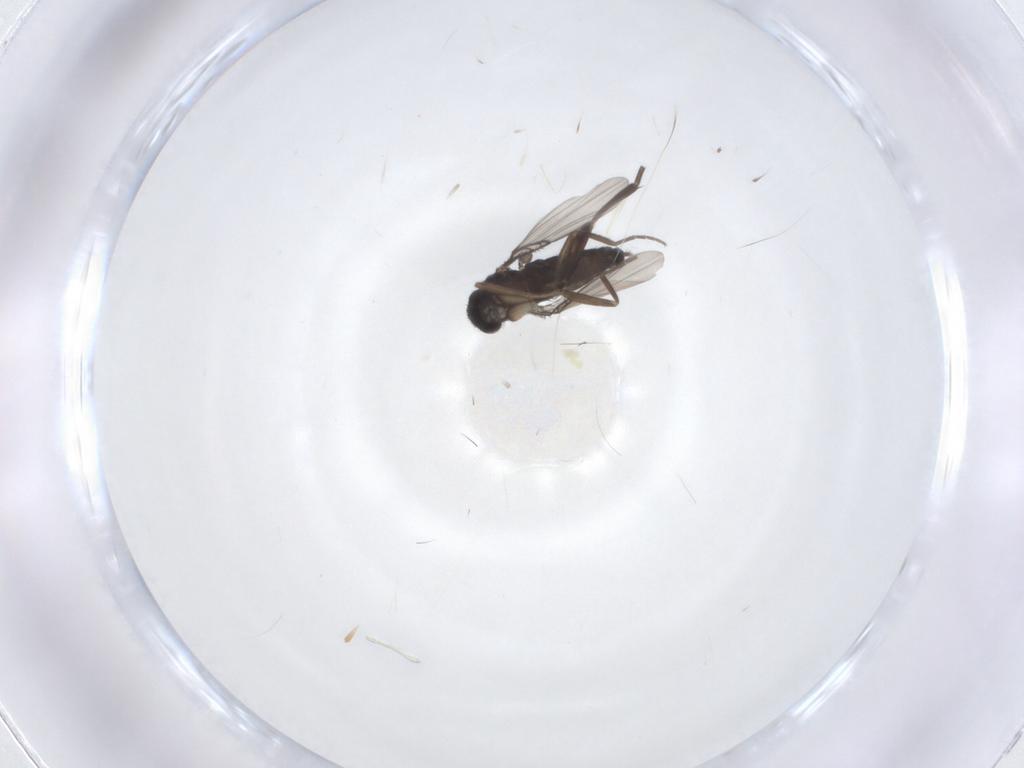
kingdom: Animalia
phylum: Arthropoda
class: Insecta
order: Diptera
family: Phoridae
